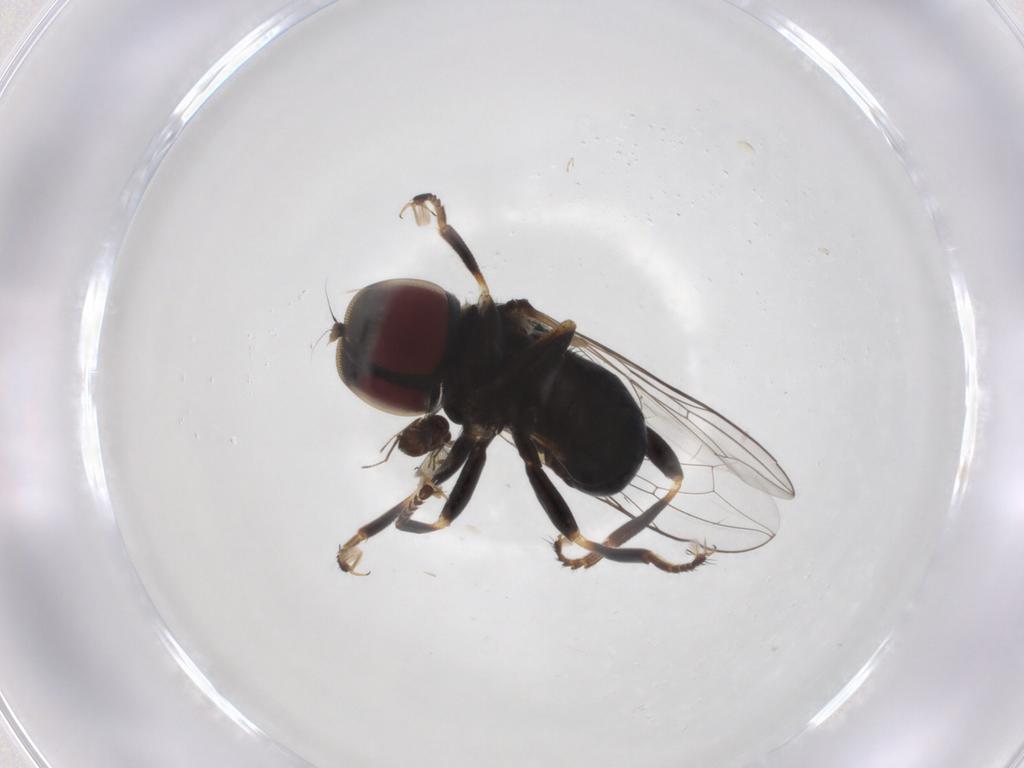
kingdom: Animalia
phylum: Arthropoda
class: Insecta
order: Diptera
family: Pipunculidae
